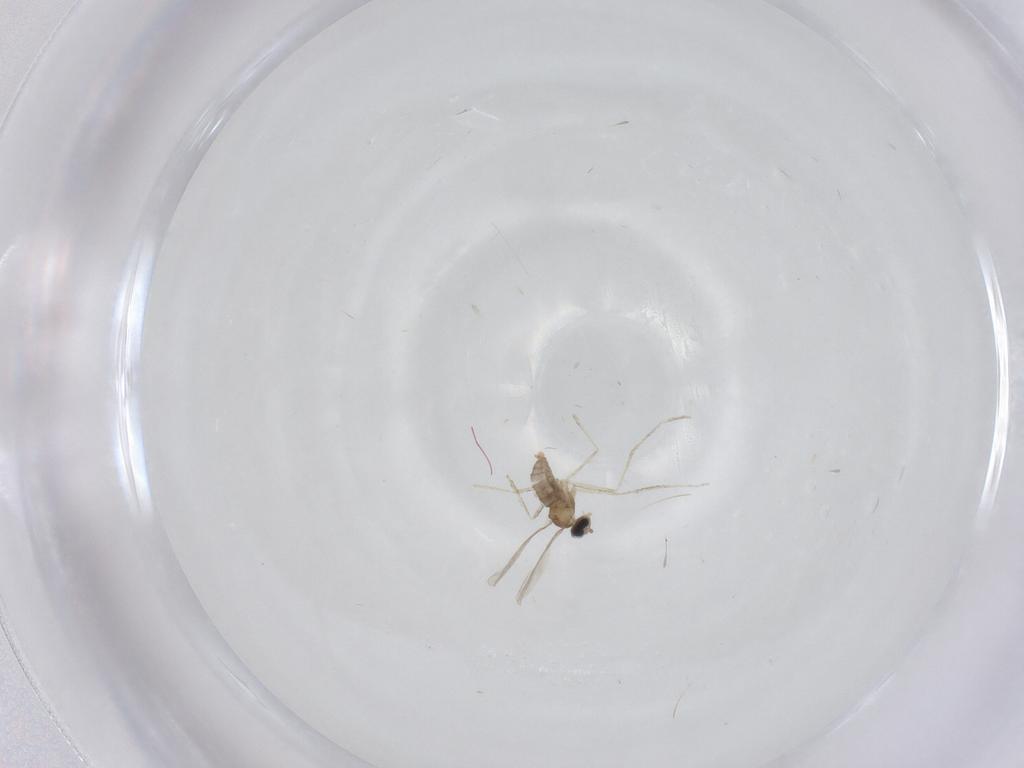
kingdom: Animalia
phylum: Arthropoda
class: Insecta
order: Diptera
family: Cecidomyiidae
